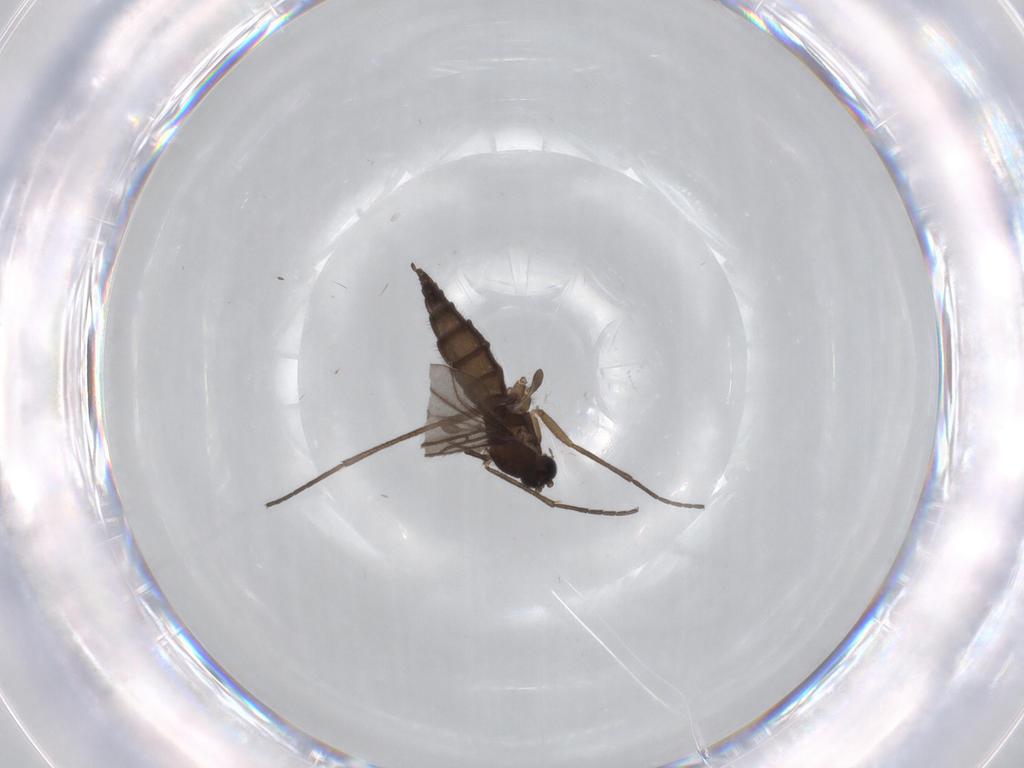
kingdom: Animalia
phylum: Arthropoda
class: Insecta
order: Diptera
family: Sciaridae
